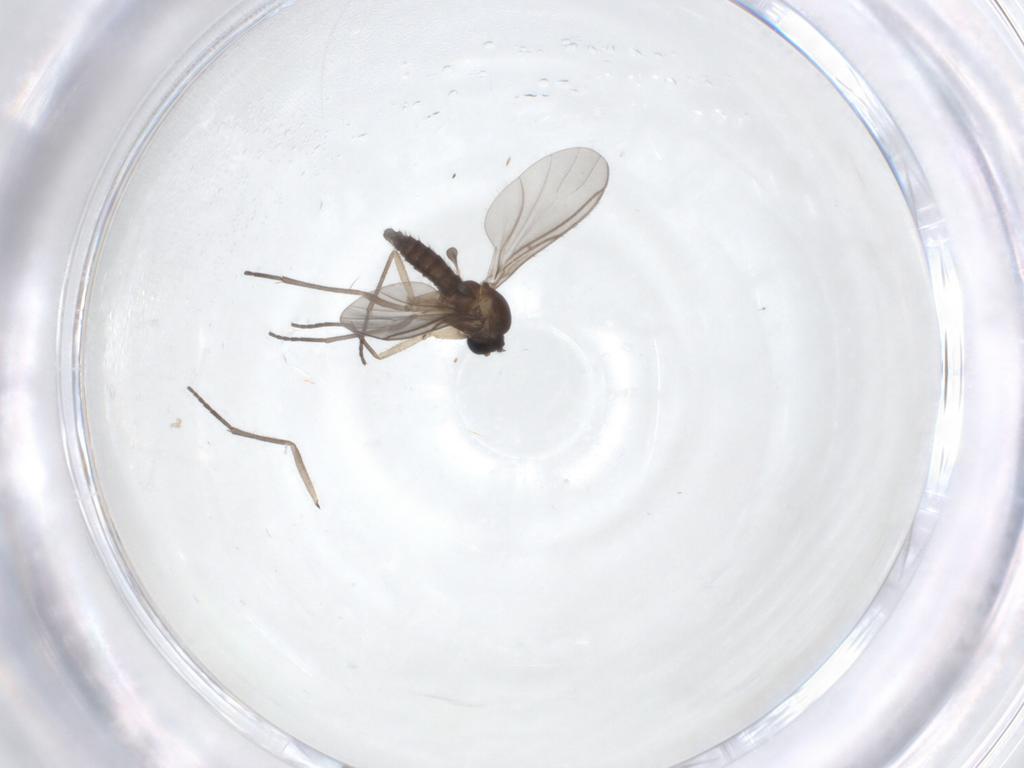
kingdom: Animalia
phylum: Arthropoda
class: Insecta
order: Diptera
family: Sciaridae
